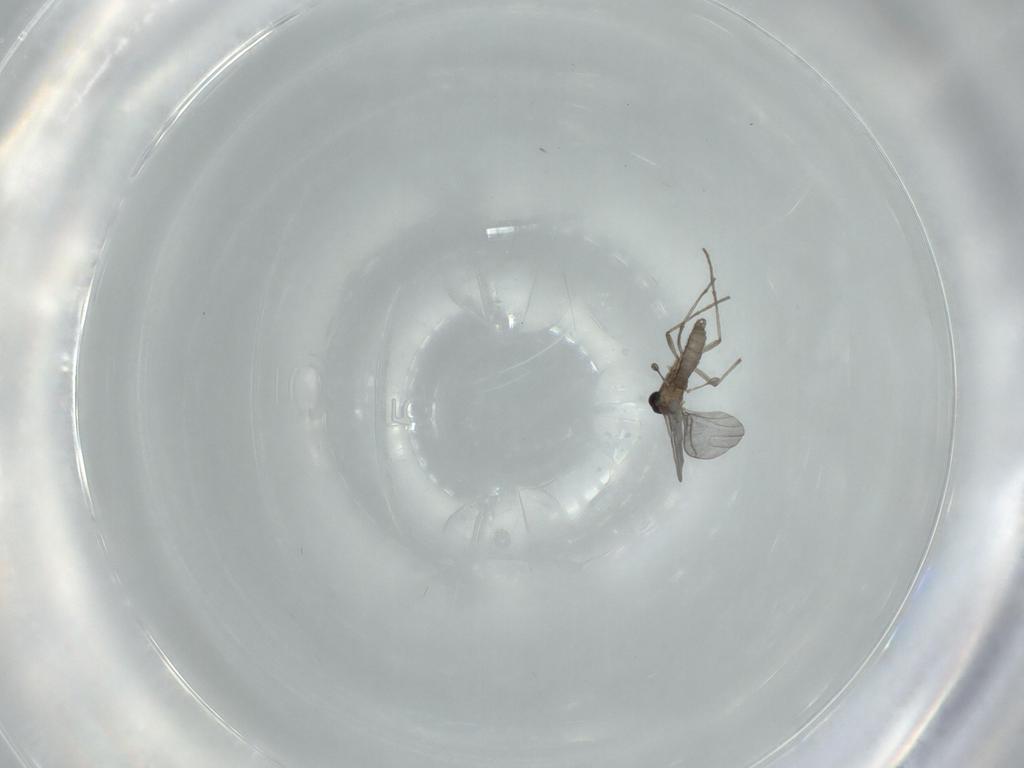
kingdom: Animalia
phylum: Arthropoda
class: Insecta
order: Diptera
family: Sciaridae
